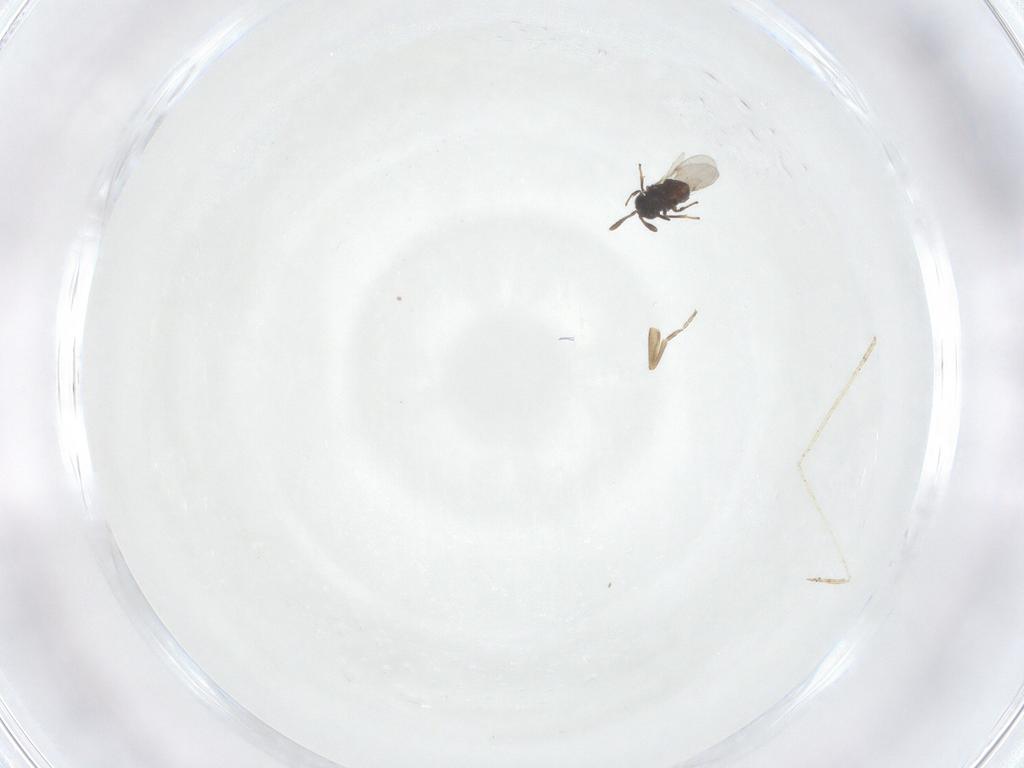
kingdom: Animalia
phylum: Arthropoda
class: Insecta
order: Diptera
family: Phoridae
